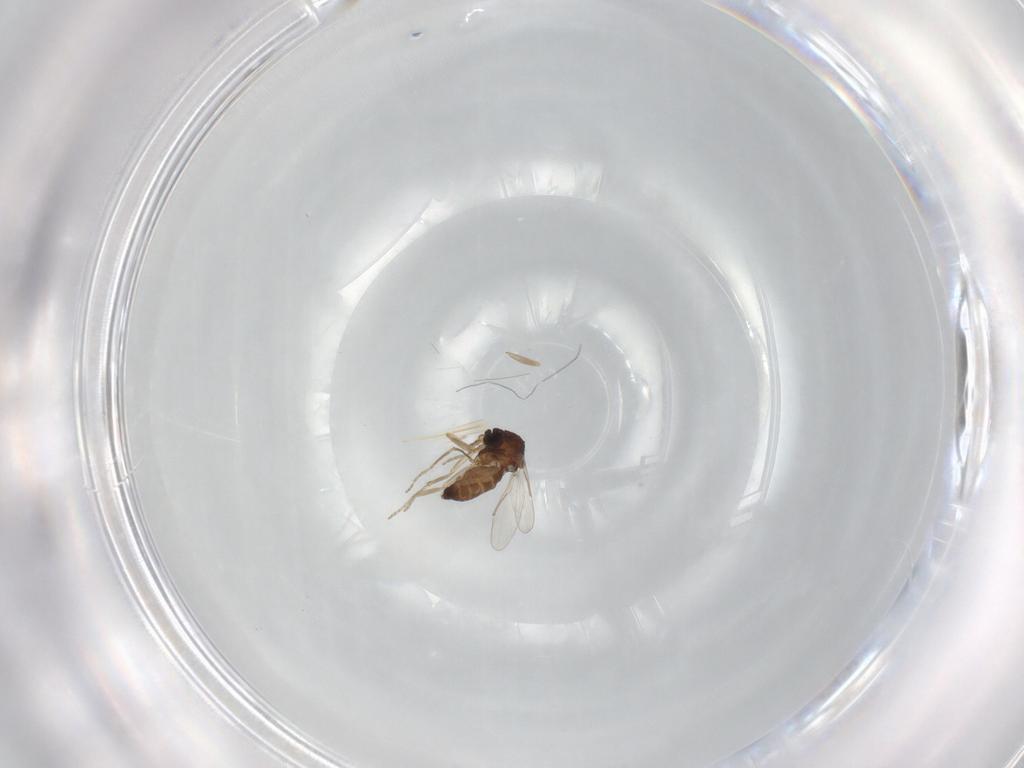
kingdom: Animalia
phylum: Arthropoda
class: Insecta
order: Diptera
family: Ceratopogonidae
